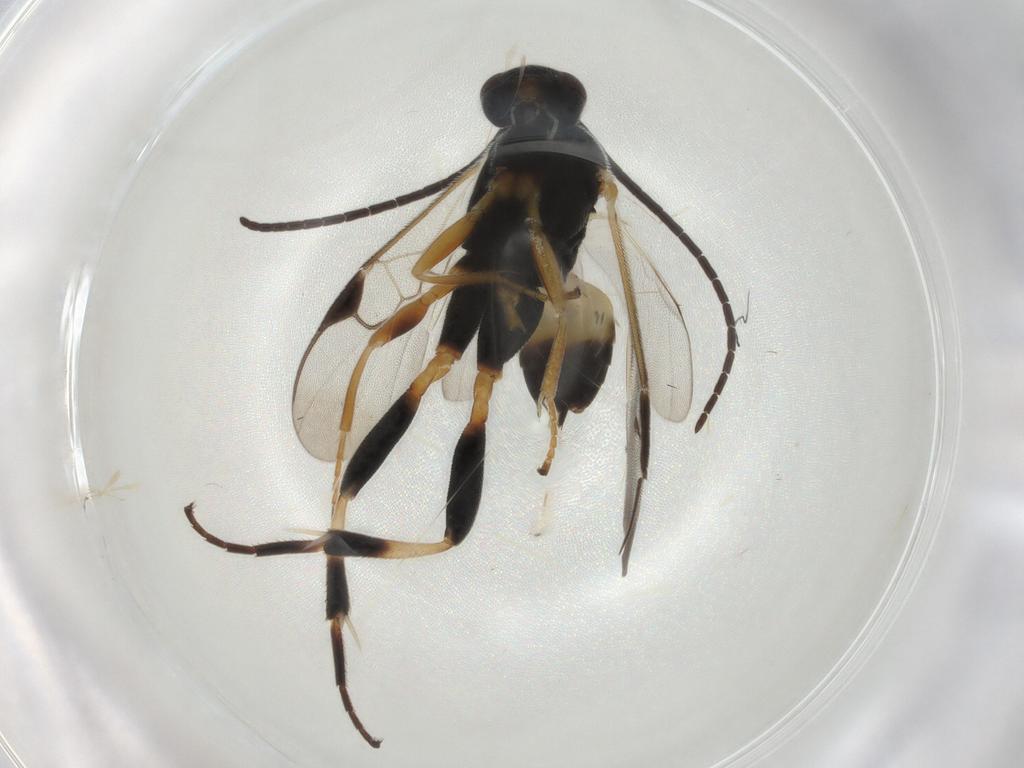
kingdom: Animalia
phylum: Arthropoda
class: Insecta
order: Hymenoptera
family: Braconidae
